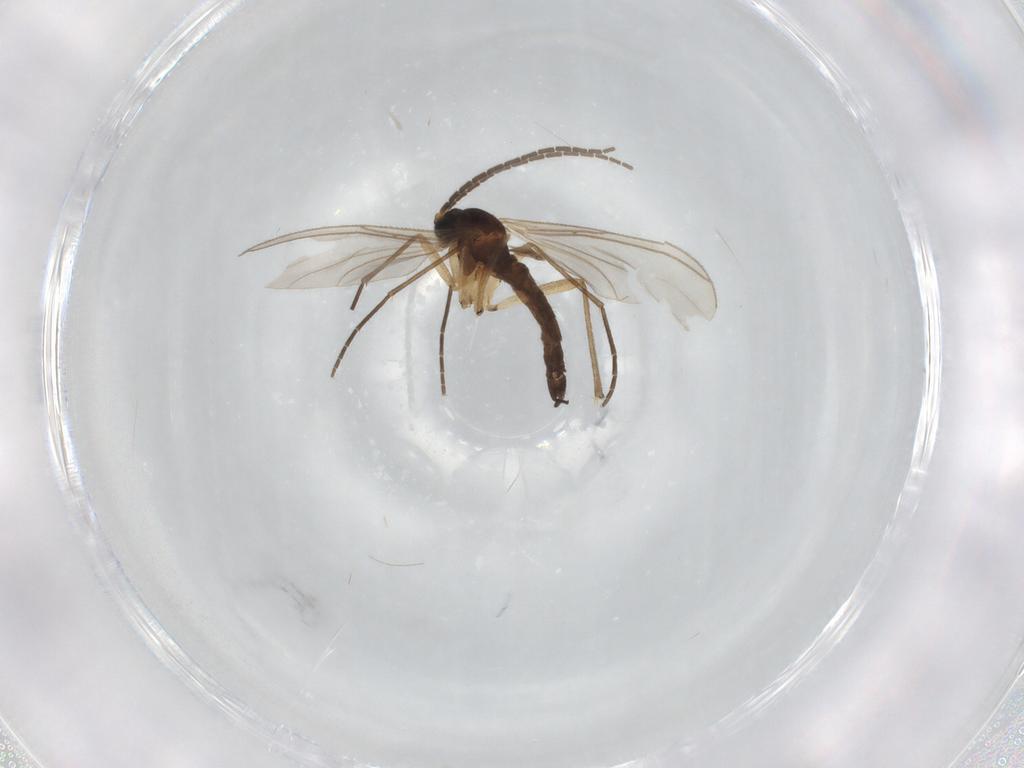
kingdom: Animalia
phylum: Arthropoda
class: Insecta
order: Diptera
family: Sciaridae
